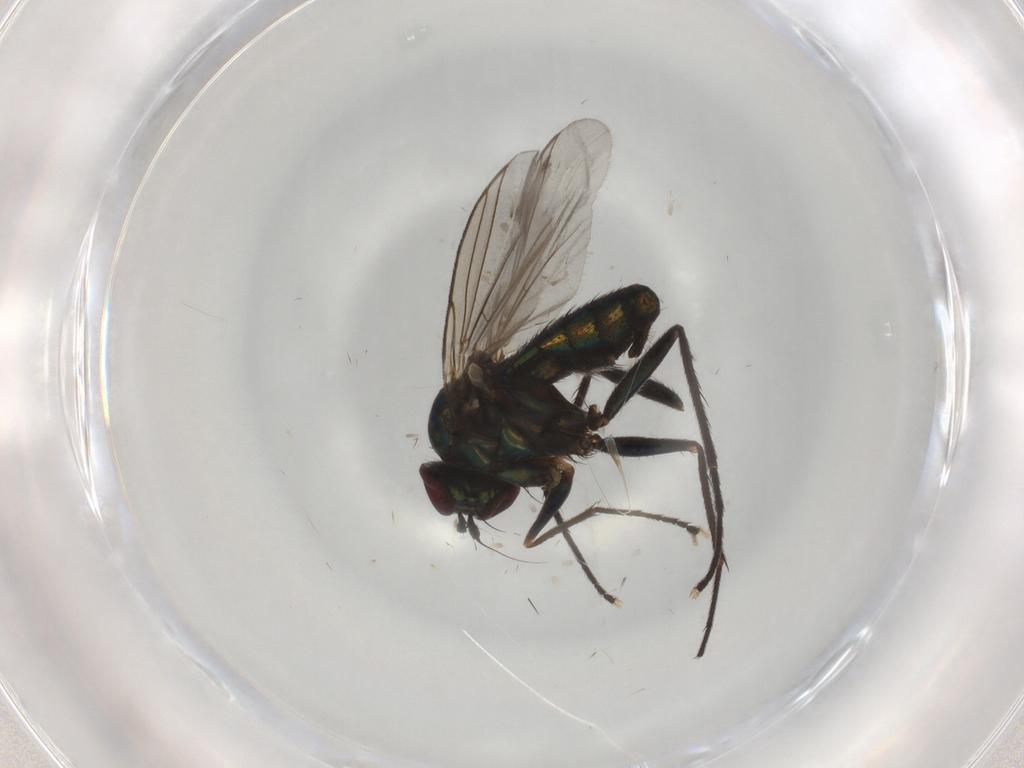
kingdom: Animalia
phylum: Arthropoda
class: Insecta
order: Diptera
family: Dolichopodidae
